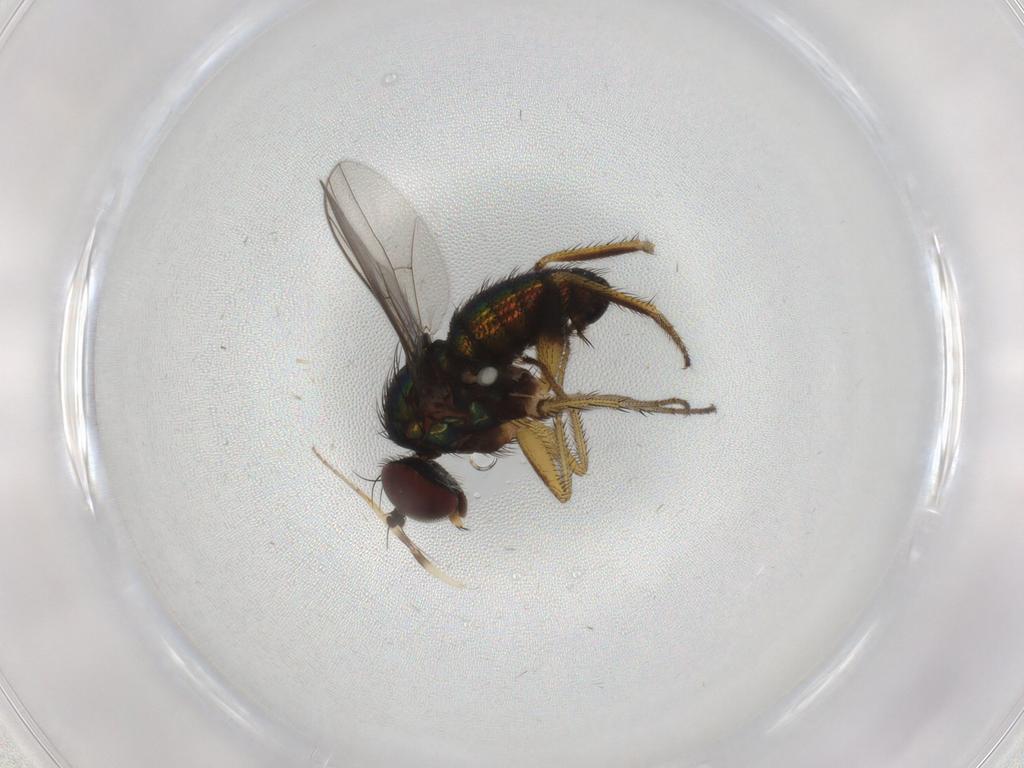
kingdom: Animalia
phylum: Arthropoda
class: Insecta
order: Diptera
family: Dolichopodidae
